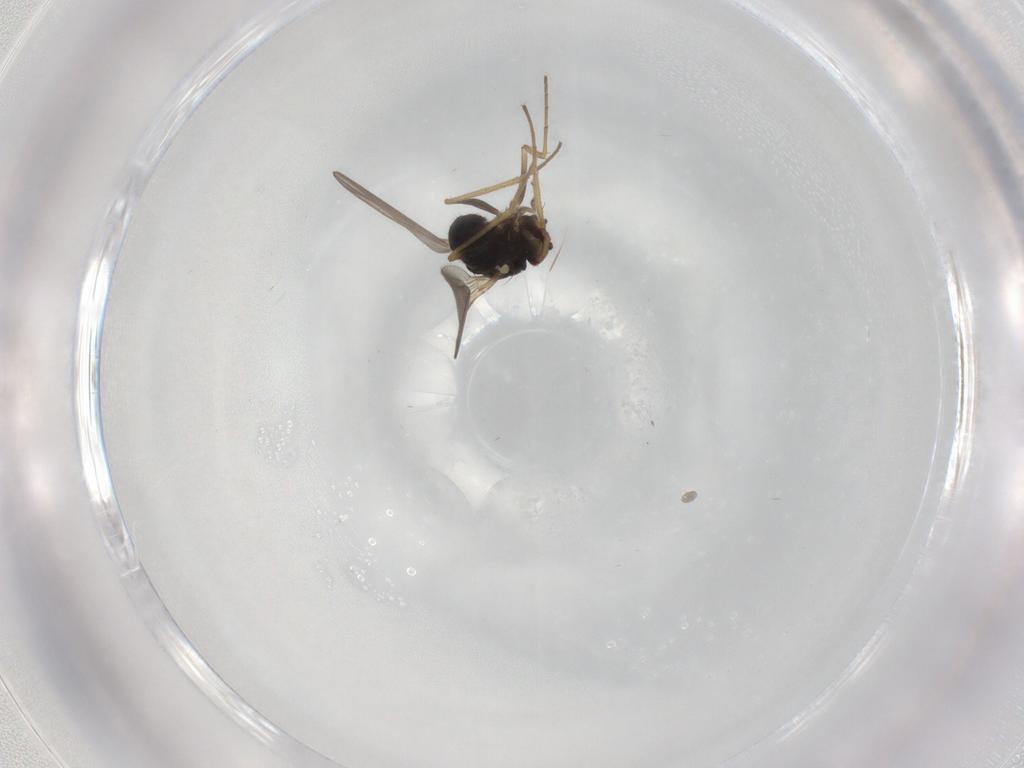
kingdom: Animalia
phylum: Arthropoda
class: Insecta
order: Diptera
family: Dolichopodidae
